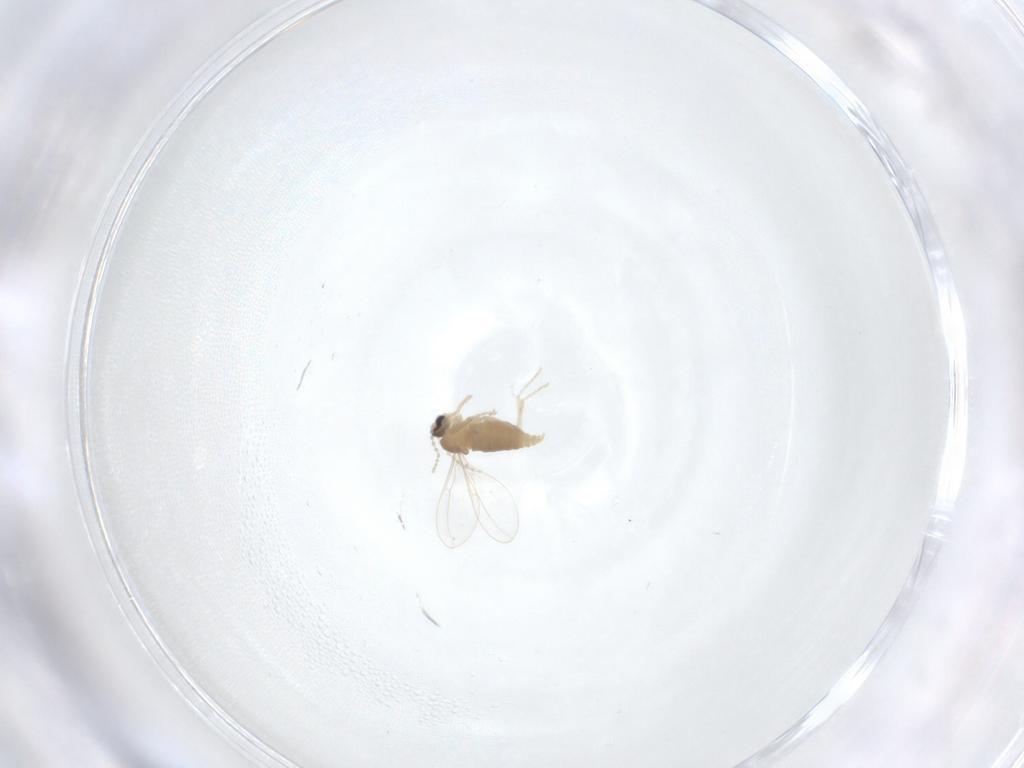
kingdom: Animalia
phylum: Arthropoda
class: Insecta
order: Diptera
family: Cecidomyiidae
